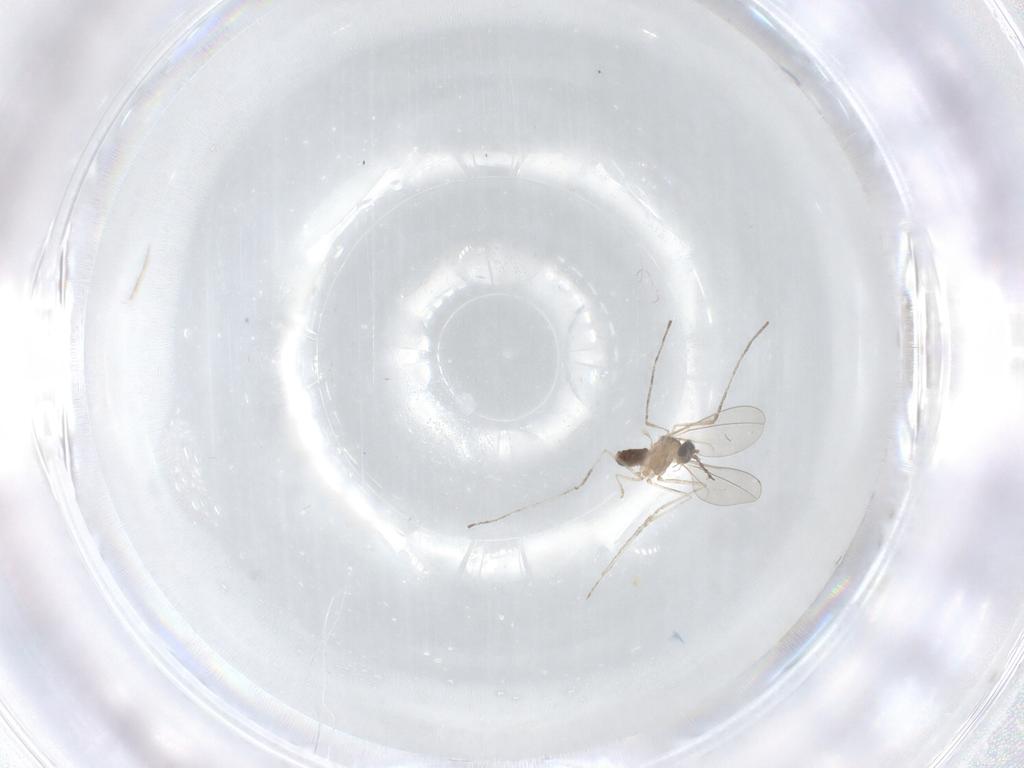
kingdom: Animalia
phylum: Arthropoda
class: Insecta
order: Diptera
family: Cecidomyiidae
